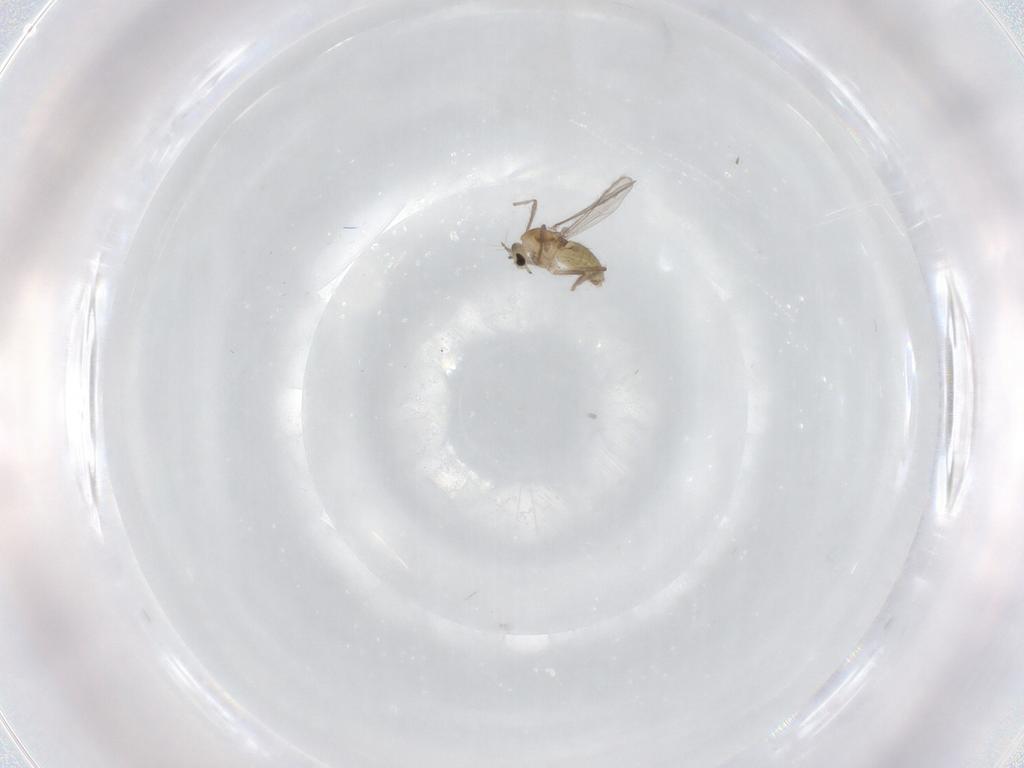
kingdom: Animalia
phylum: Arthropoda
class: Insecta
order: Diptera
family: Chironomidae
